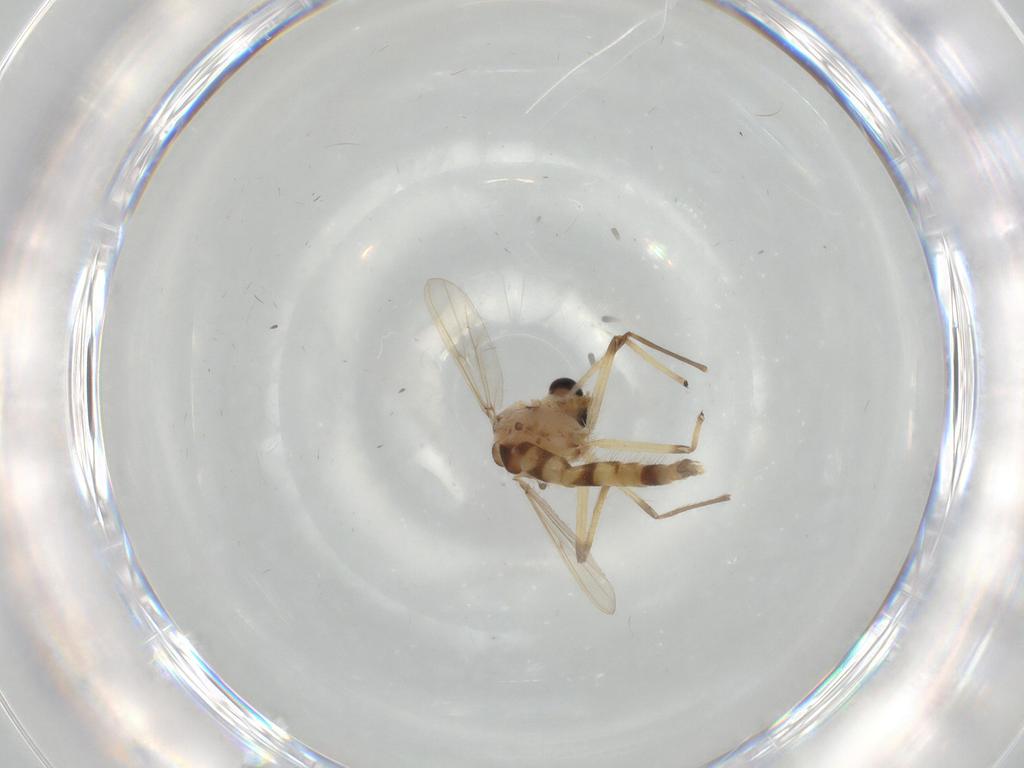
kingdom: Animalia
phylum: Arthropoda
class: Insecta
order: Diptera
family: Chironomidae
